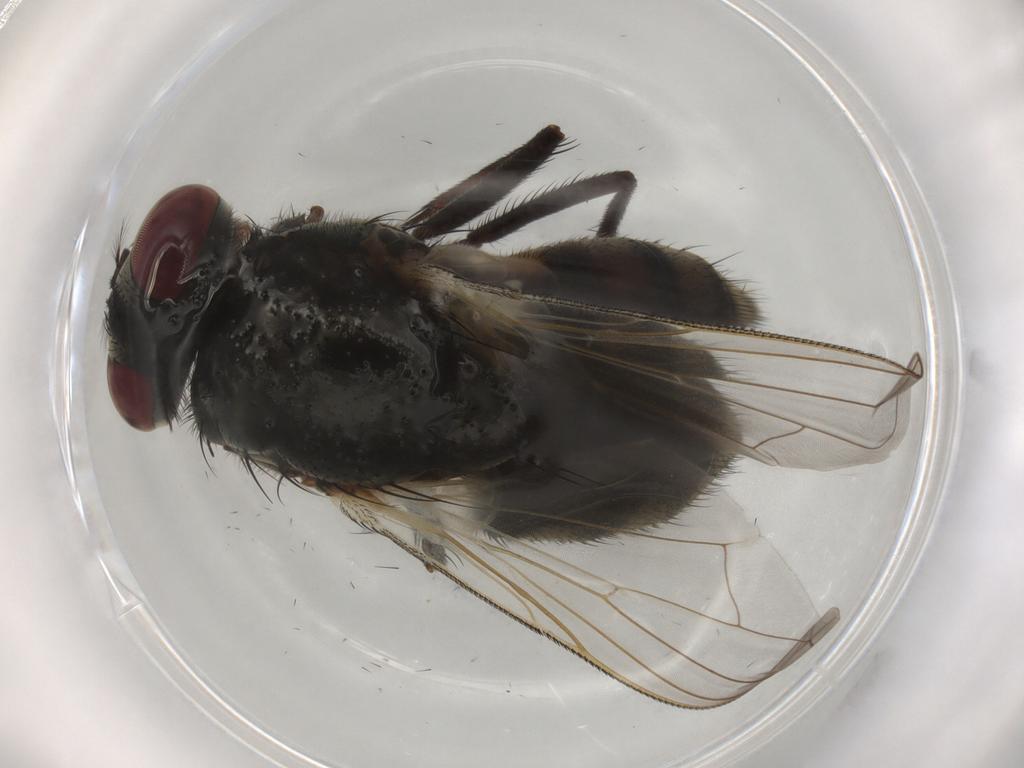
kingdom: Animalia
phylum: Arthropoda
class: Insecta
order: Diptera
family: Muscidae
